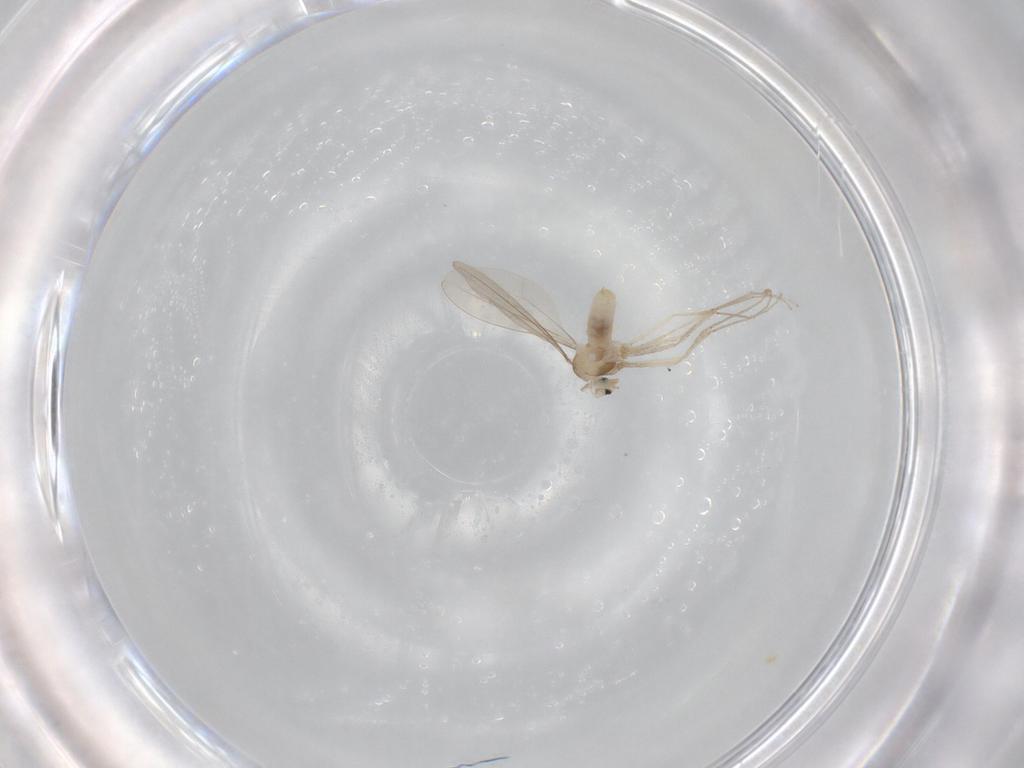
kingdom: Animalia
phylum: Arthropoda
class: Insecta
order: Diptera
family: Cecidomyiidae
